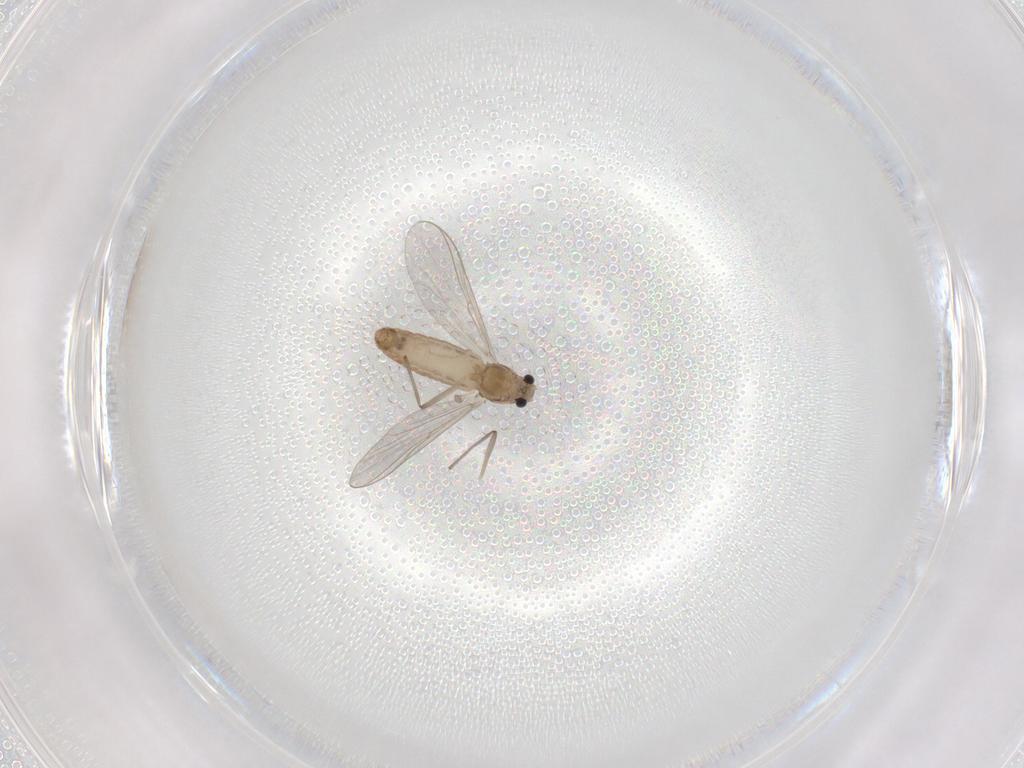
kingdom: Animalia
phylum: Arthropoda
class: Insecta
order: Diptera
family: Chironomidae
